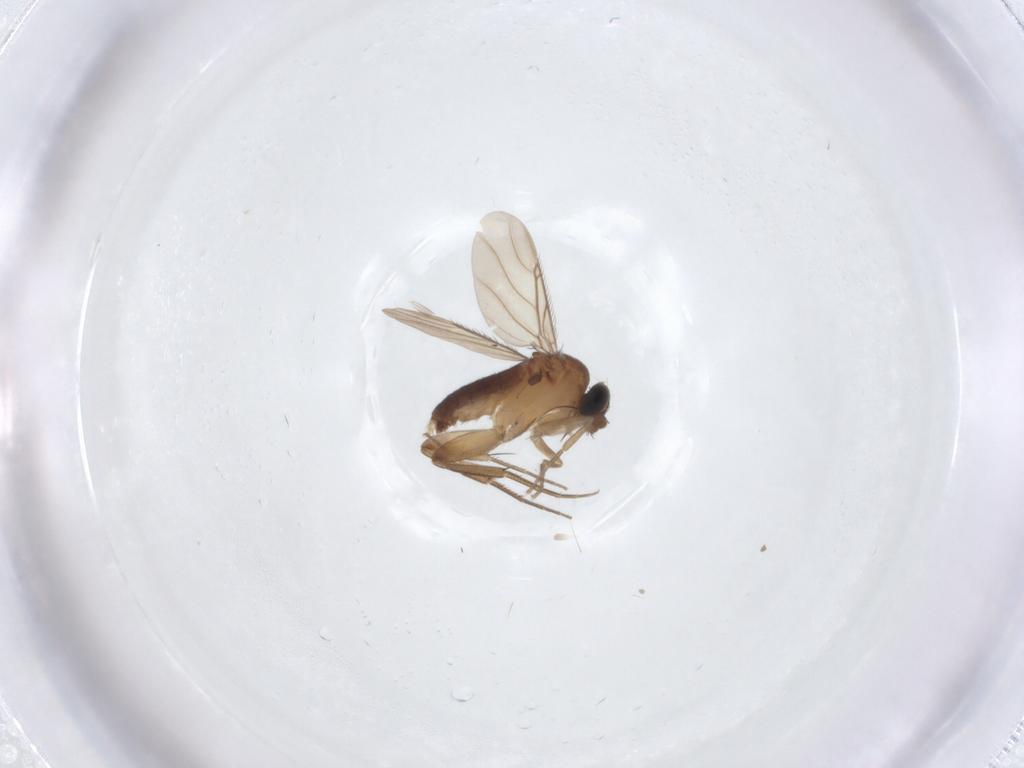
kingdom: Animalia
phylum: Arthropoda
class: Insecta
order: Diptera
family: Phoridae
